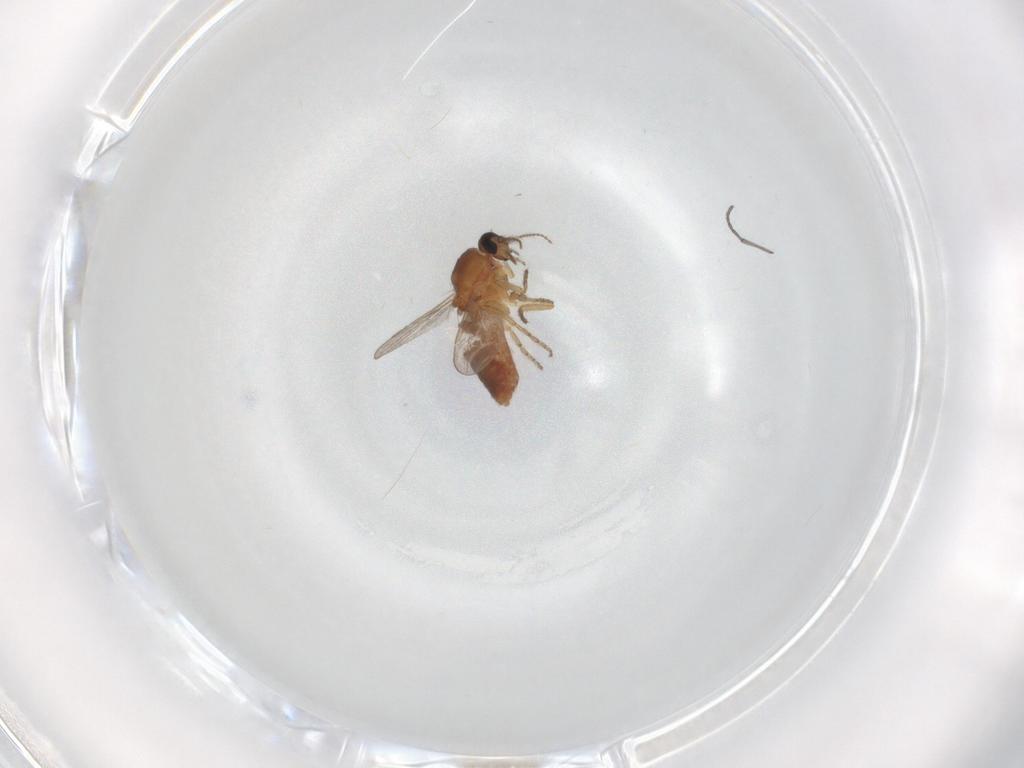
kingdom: Animalia
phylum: Arthropoda
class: Insecta
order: Diptera
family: Ceratopogonidae
